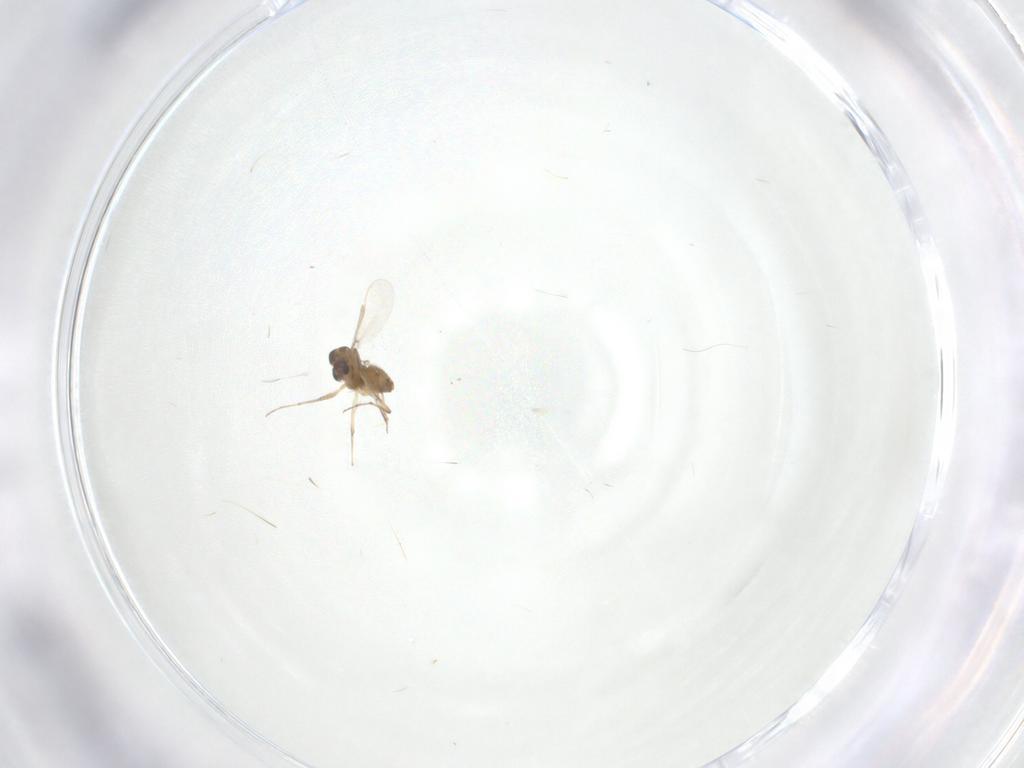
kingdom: Animalia
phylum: Arthropoda
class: Insecta
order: Diptera
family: Chironomidae
